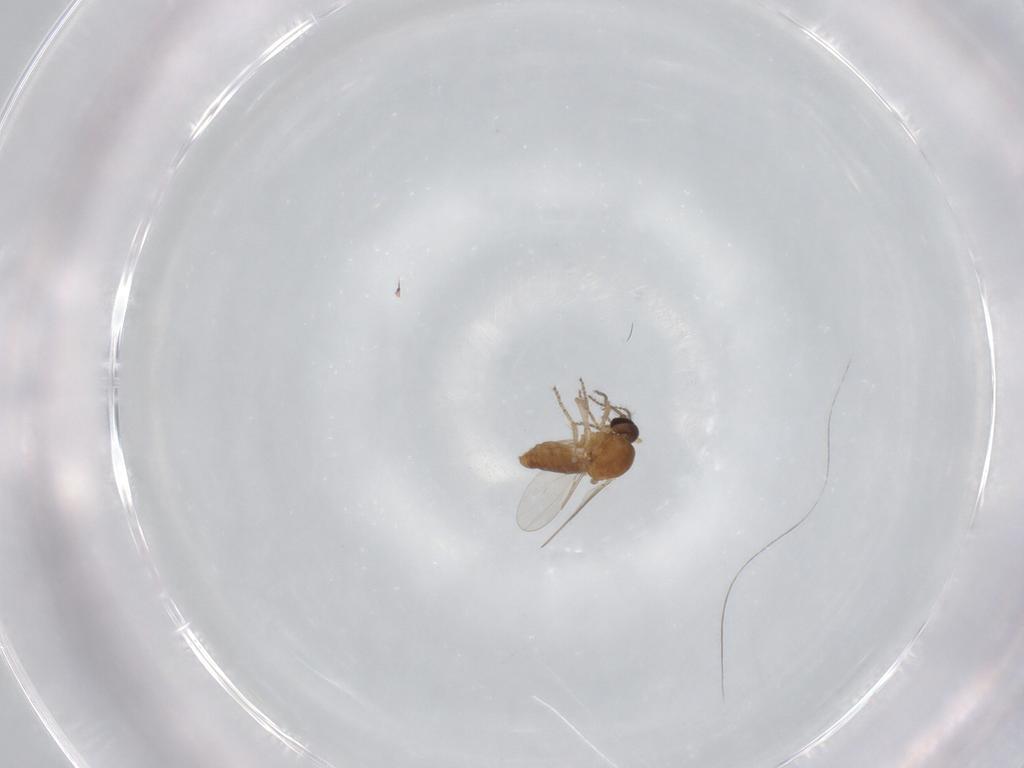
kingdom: Animalia
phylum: Arthropoda
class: Insecta
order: Diptera
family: Ceratopogonidae
